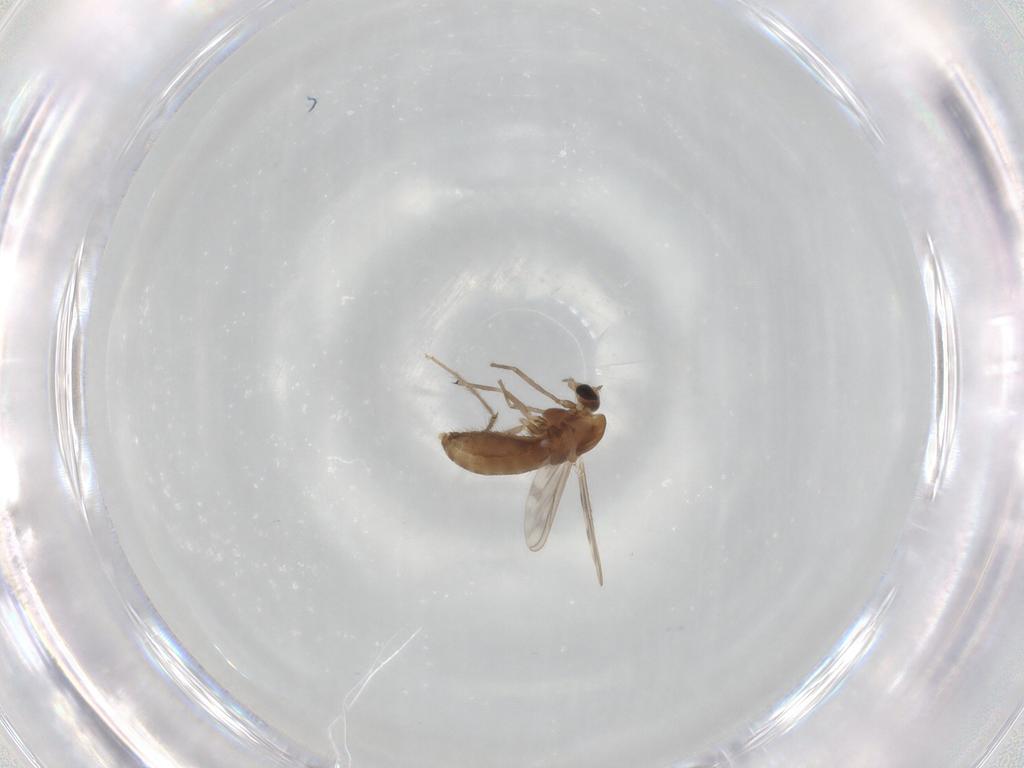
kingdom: Animalia
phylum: Arthropoda
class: Insecta
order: Diptera
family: Chironomidae
